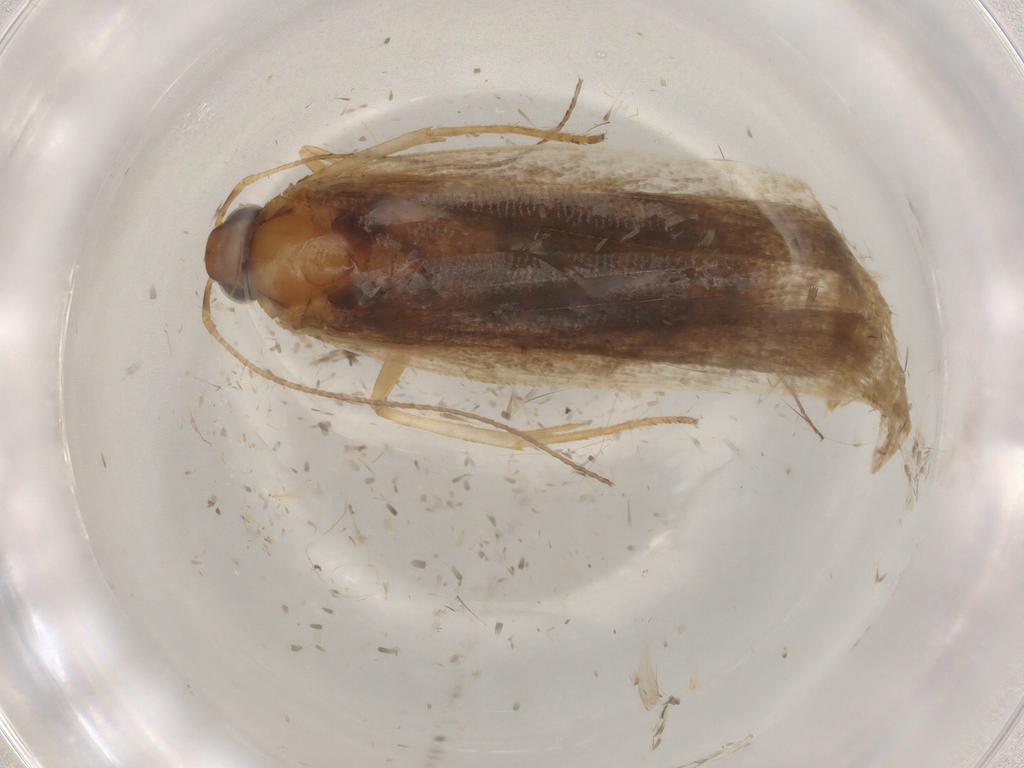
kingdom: Animalia
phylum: Arthropoda
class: Insecta
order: Lepidoptera
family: Gelechiidae
